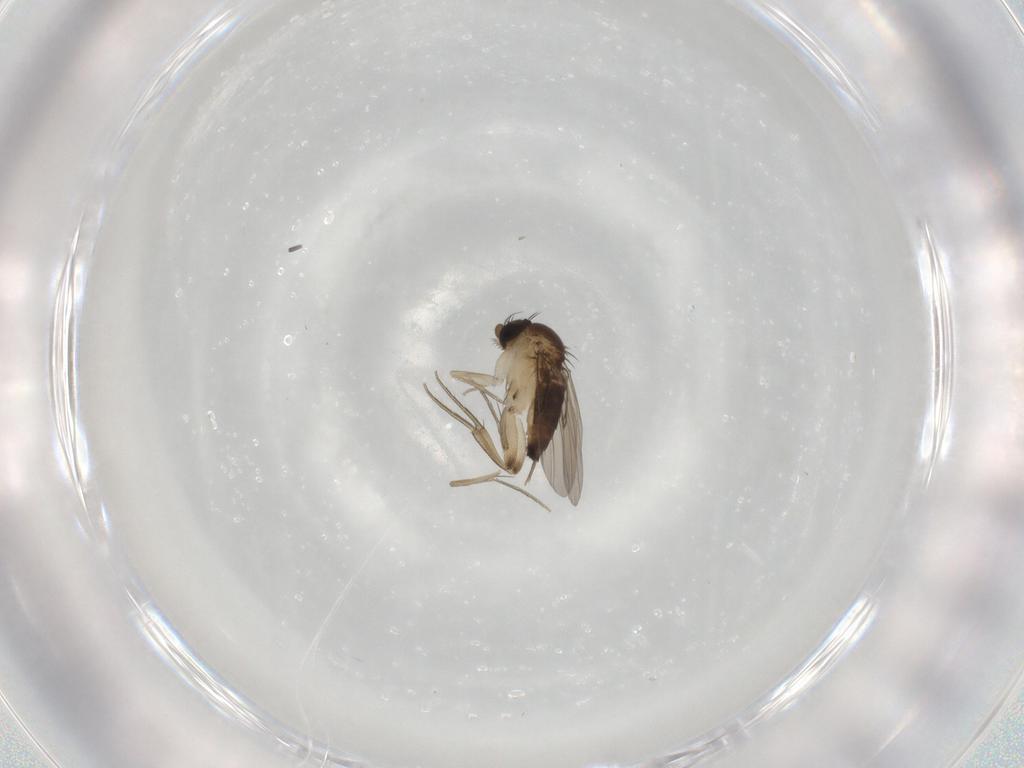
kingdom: Animalia
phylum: Arthropoda
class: Insecta
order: Diptera
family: Phoridae
